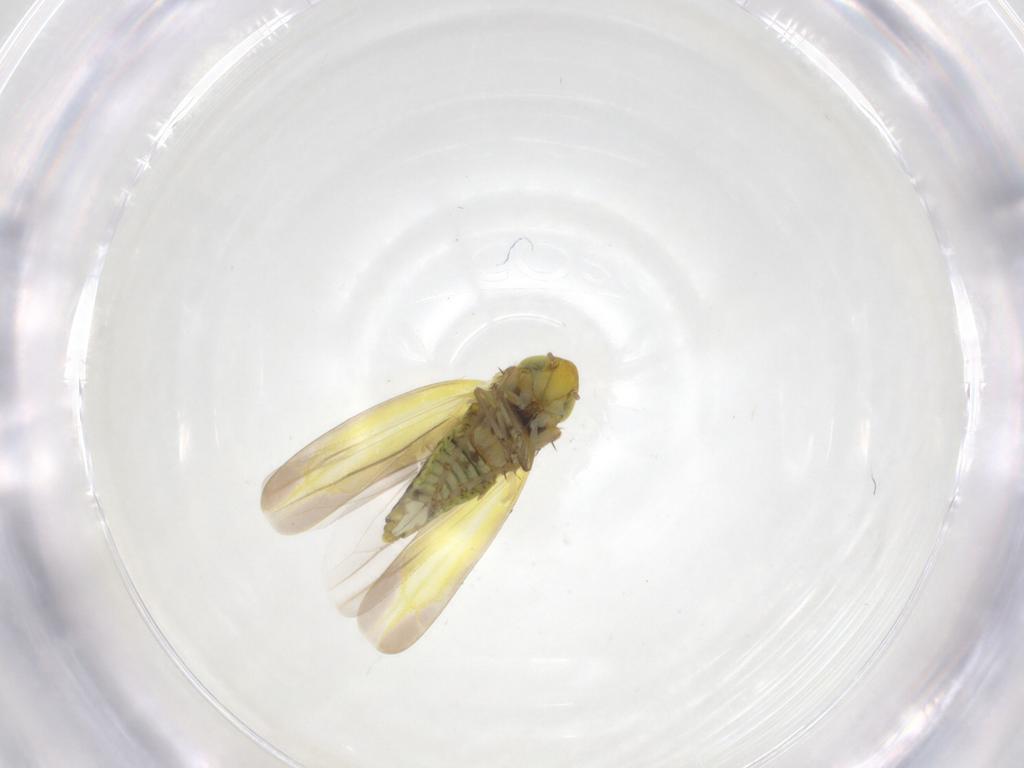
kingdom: Animalia
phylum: Arthropoda
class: Insecta
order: Hemiptera
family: Cicadellidae
